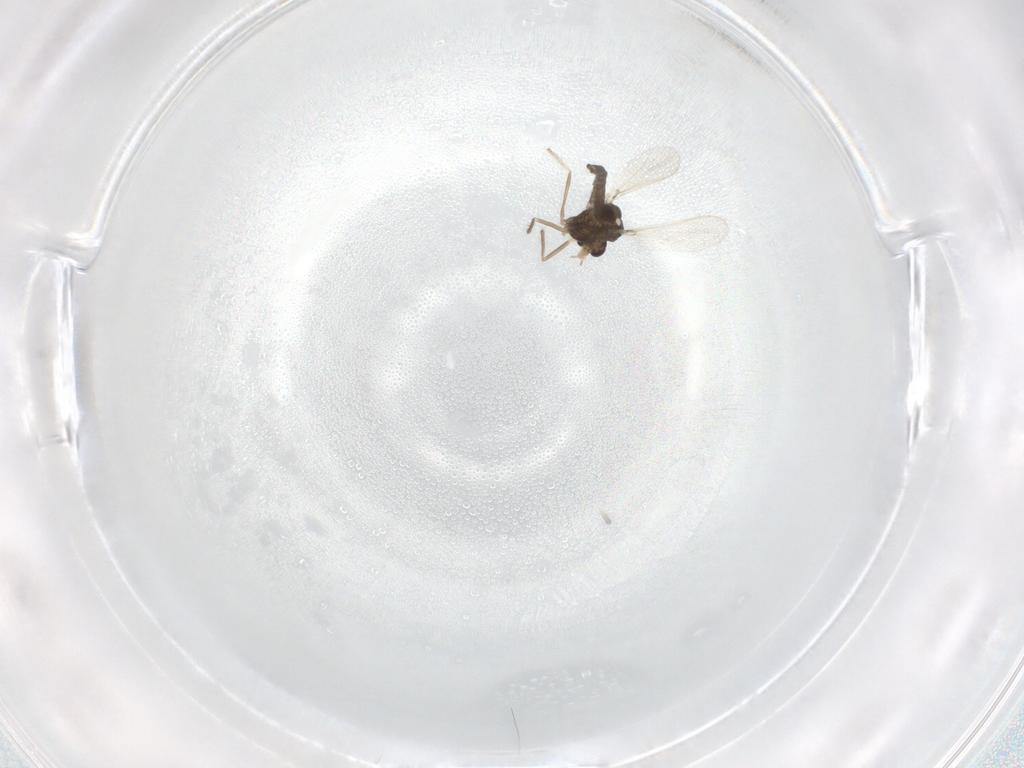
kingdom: Animalia
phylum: Arthropoda
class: Insecta
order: Diptera
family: Chironomidae
